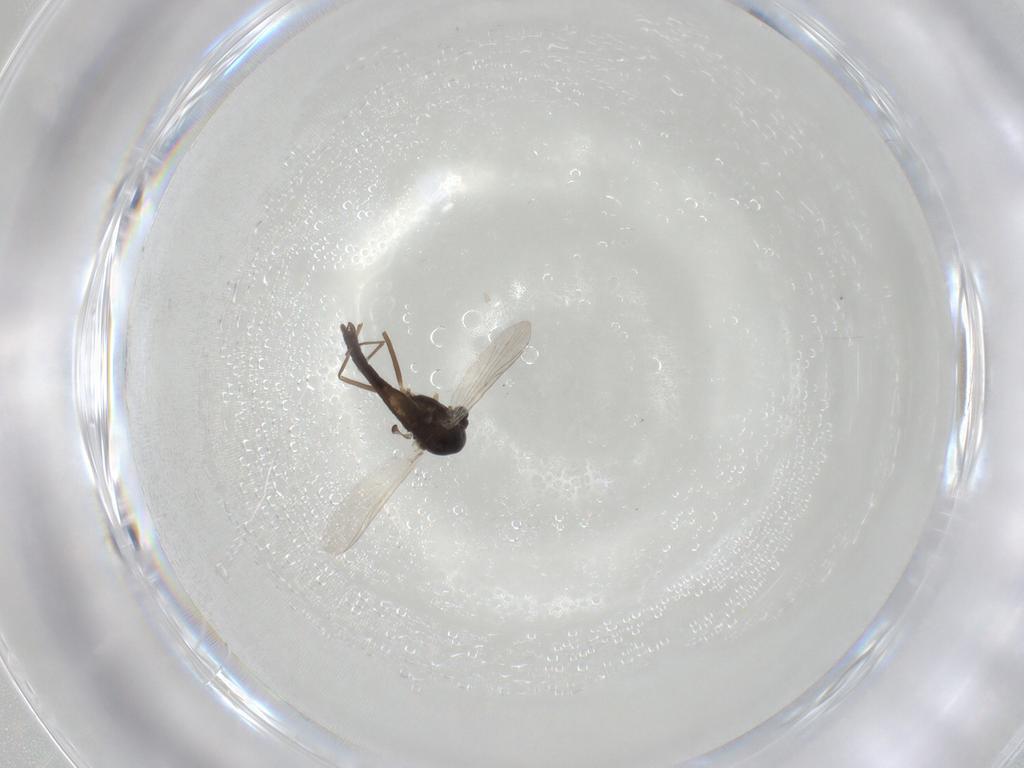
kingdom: Animalia
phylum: Arthropoda
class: Insecta
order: Diptera
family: Chironomidae
